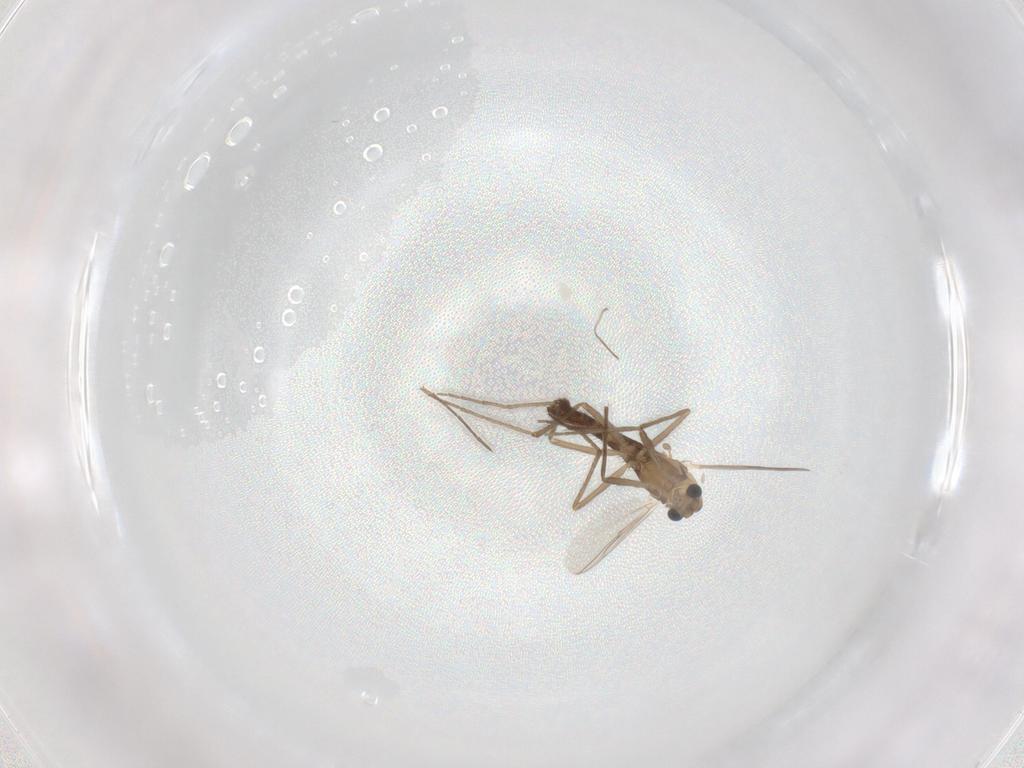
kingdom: Animalia
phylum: Arthropoda
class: Insecta
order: Diptera
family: Chironomidae
